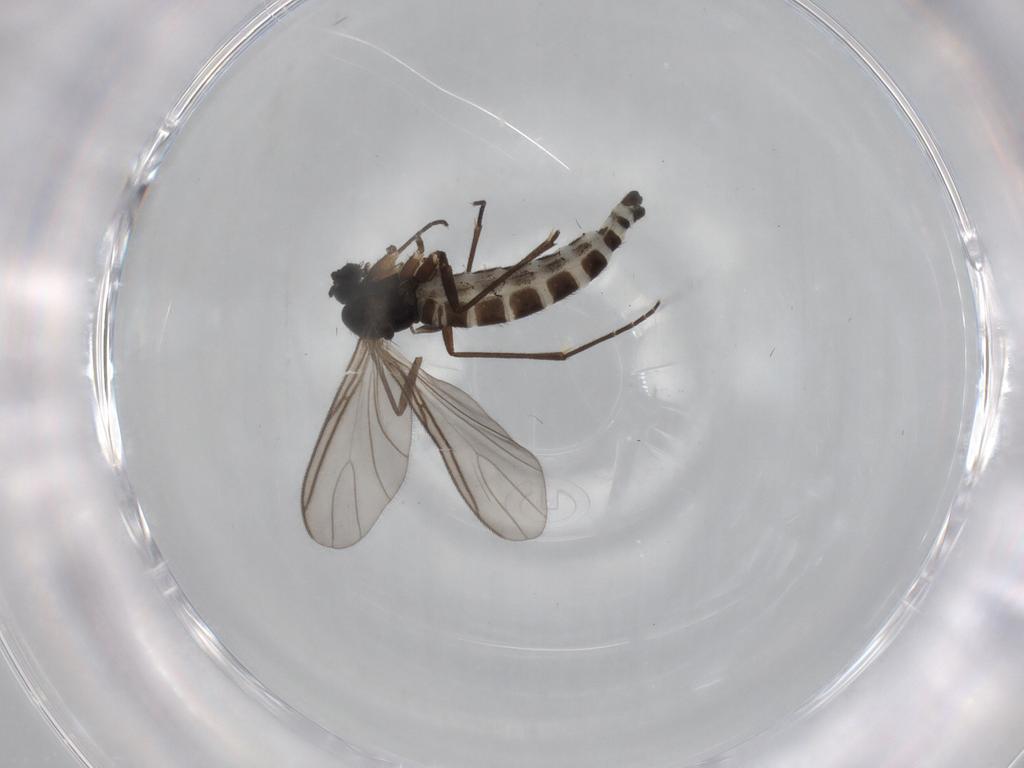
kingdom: Animalia
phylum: Arthropoda
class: Insecta
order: Diptera
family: Sciaridae
